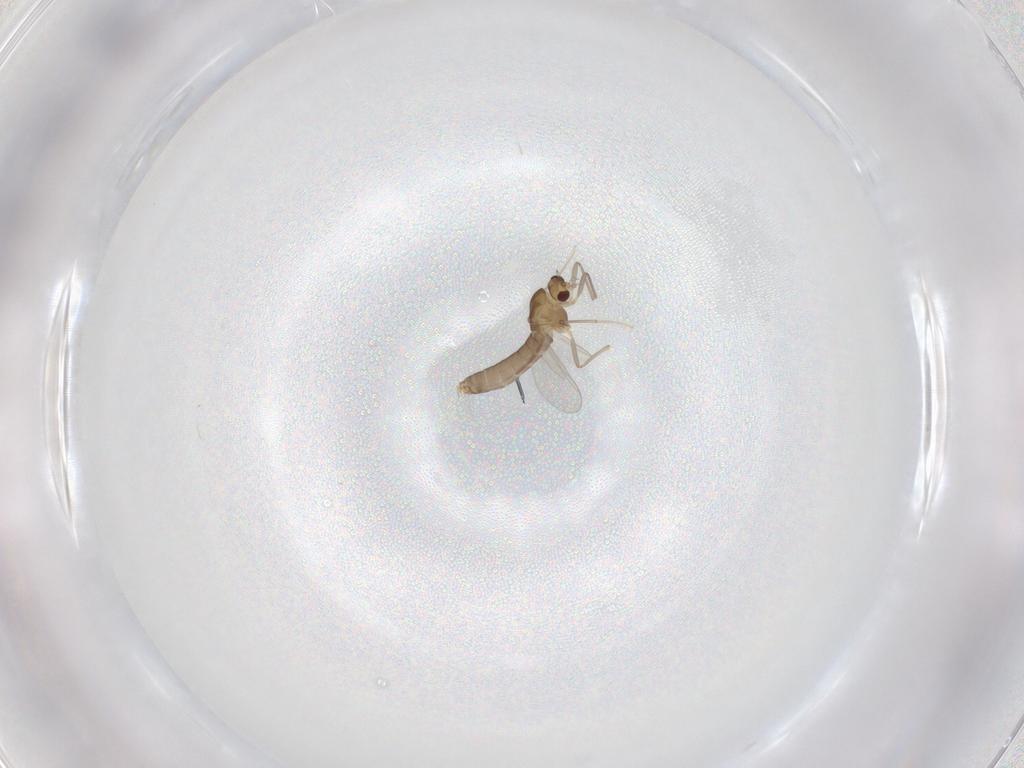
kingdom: Animalia
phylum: Arthropoda
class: Insecta
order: Diptera
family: Chironomidae
